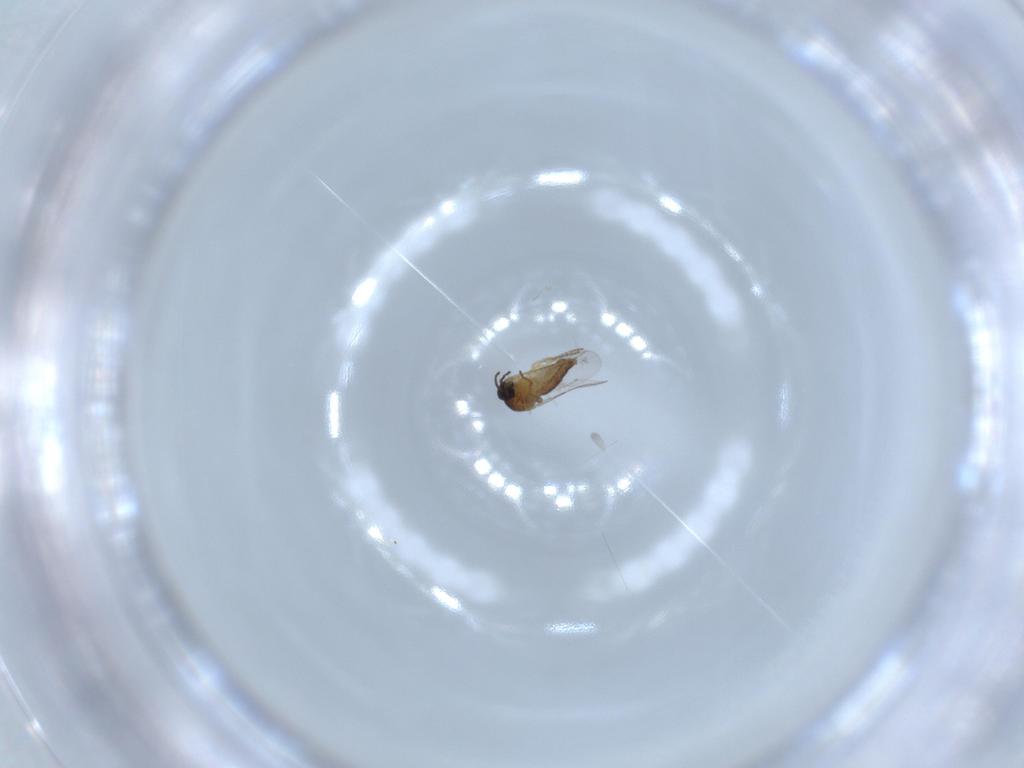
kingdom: Animalia
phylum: Arthropoda
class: Insecta
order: Diptera
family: Ceratopogonidae
